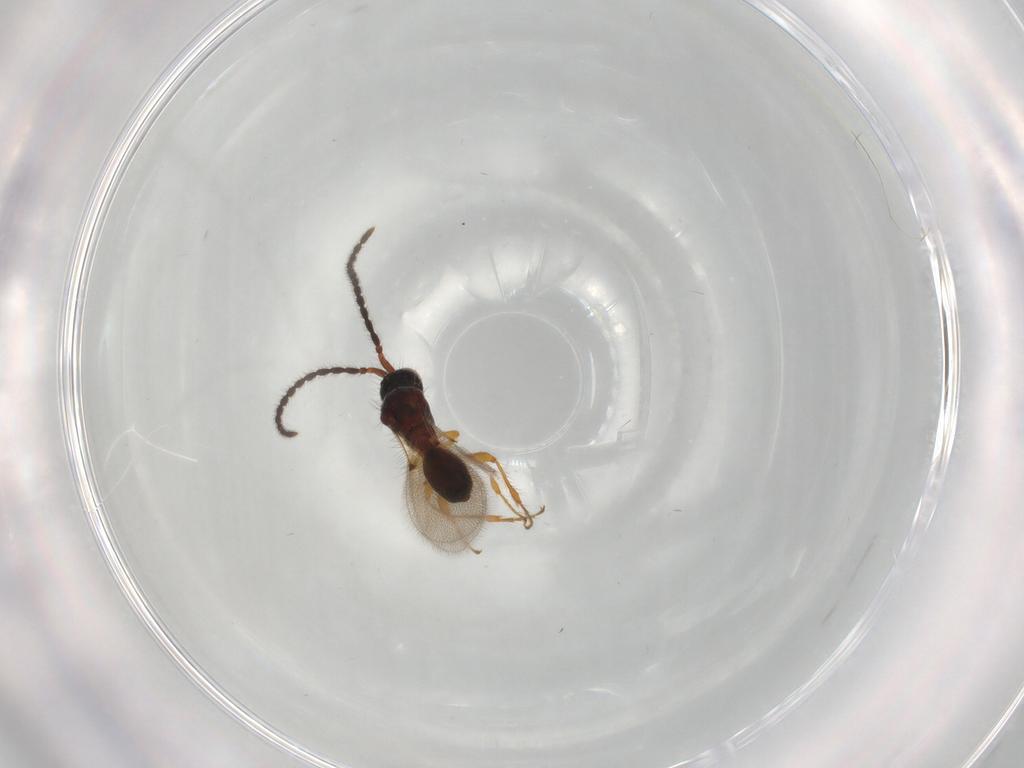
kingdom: Animalia
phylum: Arthropoda
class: Insecta
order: Hymenoptera
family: Diapriidae
